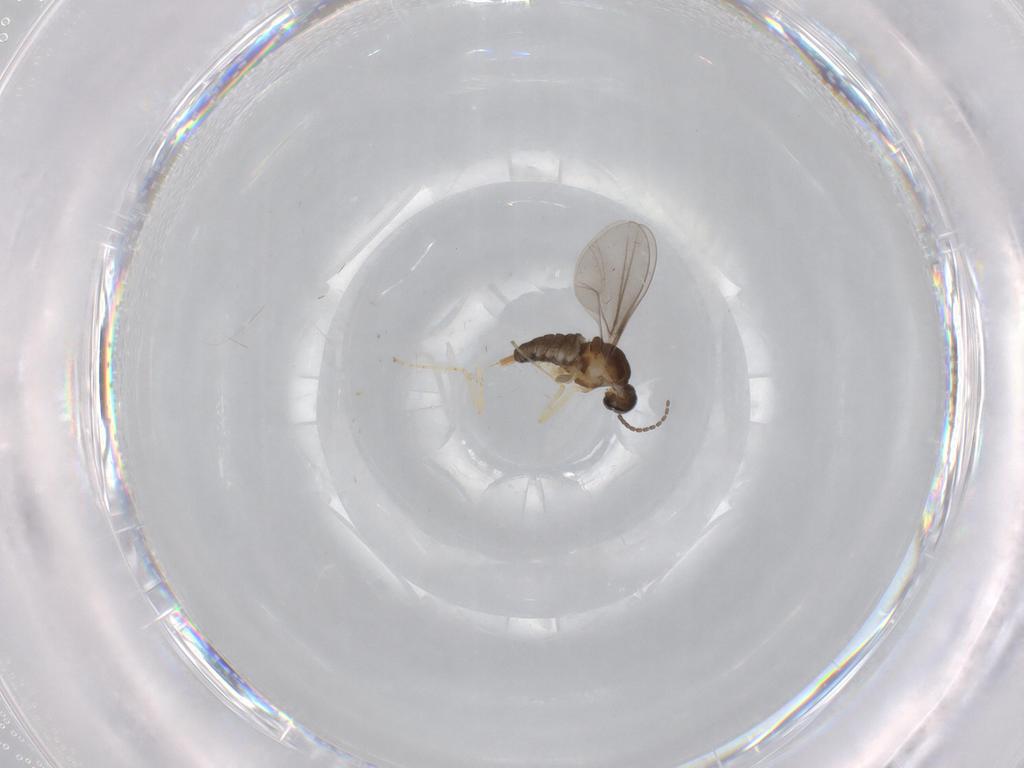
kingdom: Animalia
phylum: Arthropoda
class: Insecta
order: Diptera
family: Cecidomyiidae
